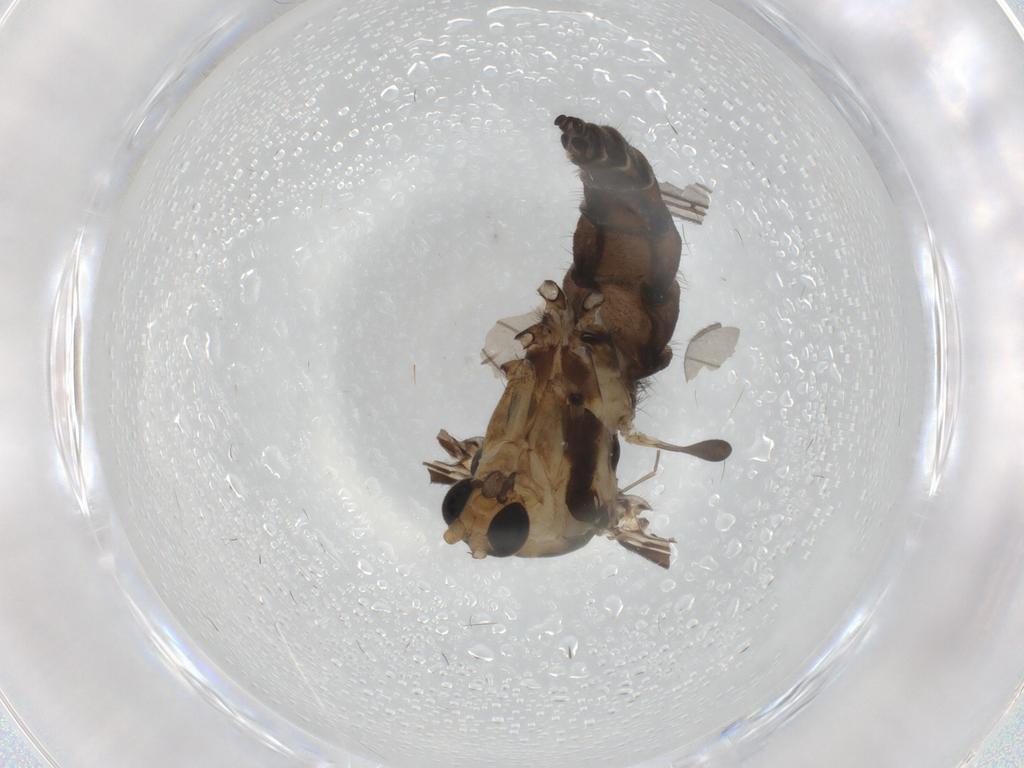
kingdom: Animalia
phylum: Arthropoda
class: Insecta
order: Diptera
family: Sciaridae
